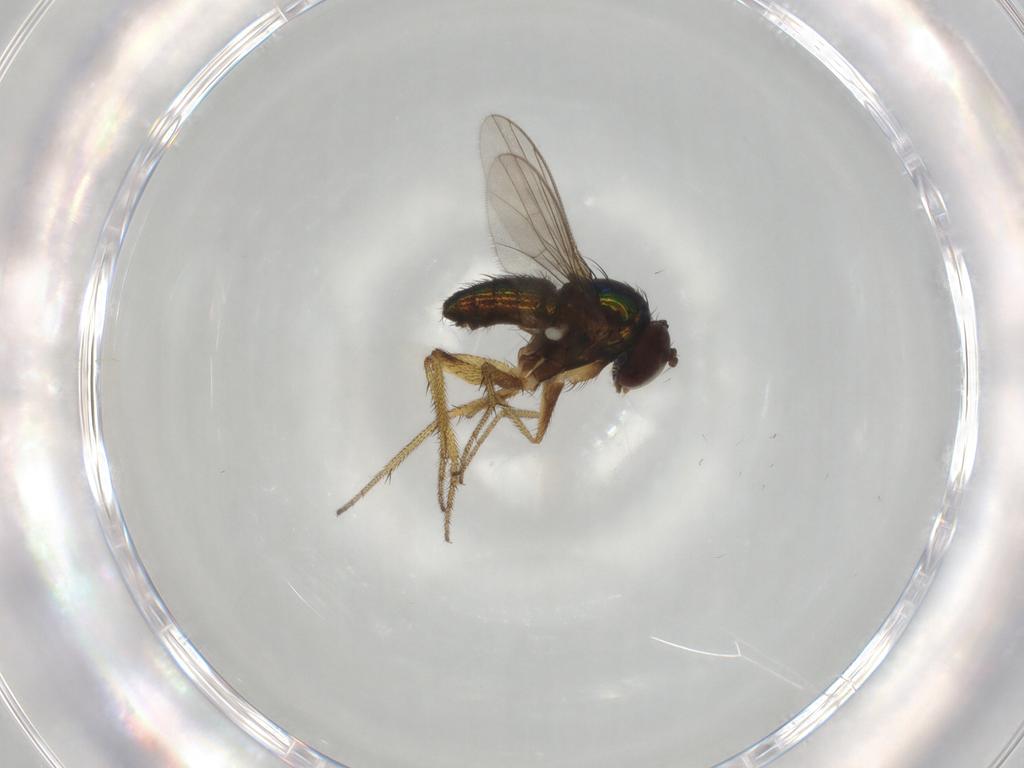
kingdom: Animalia
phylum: Arthropoda
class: Insecta
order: Diptera
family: Dolichopodidae
